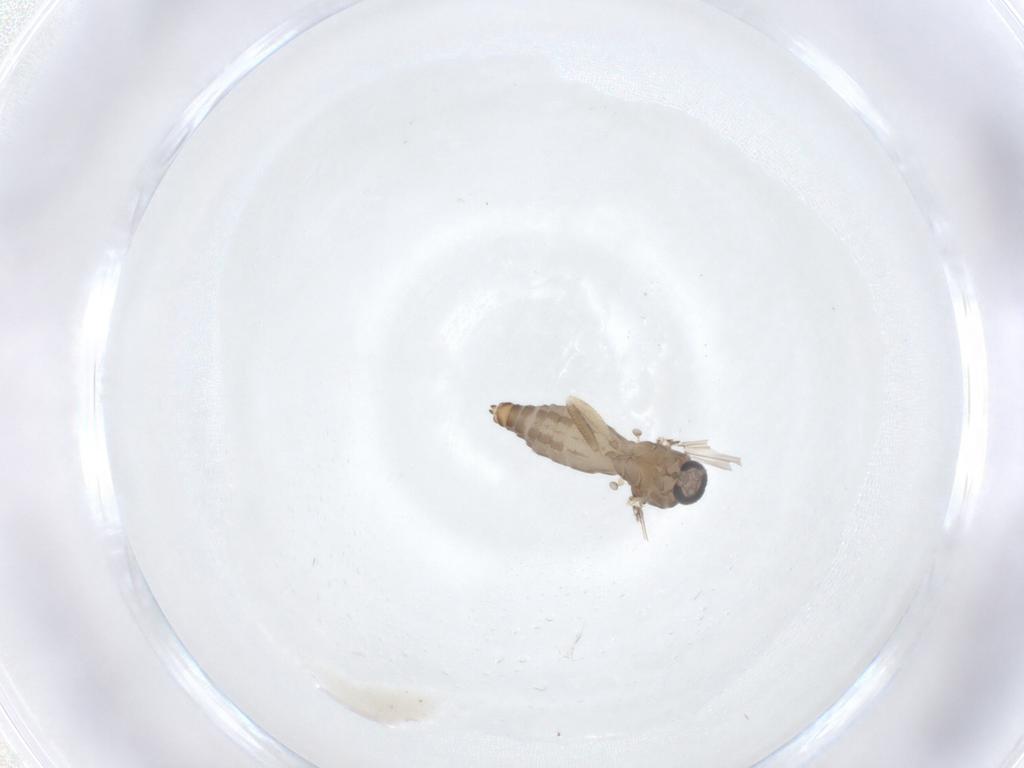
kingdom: Animalia
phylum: Arthropoda
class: Insecta
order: Diptera
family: Ceratopogonidae
